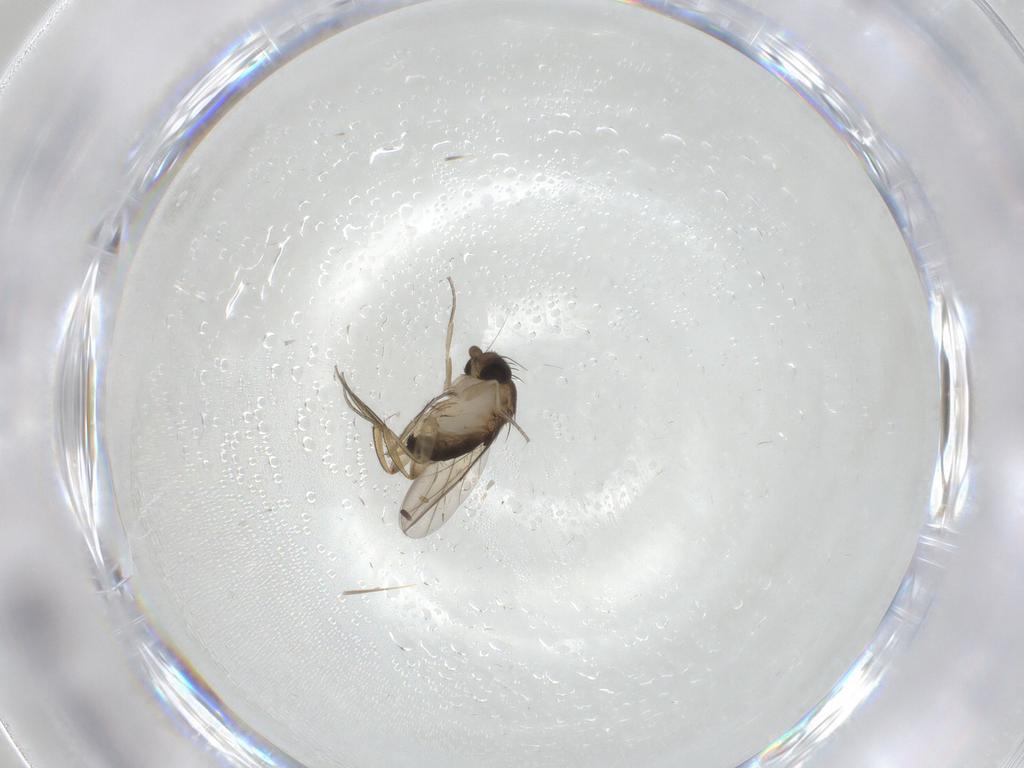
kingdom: Animalia
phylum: Arthropoda
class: Insecta
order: Diptera
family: Phoridae
